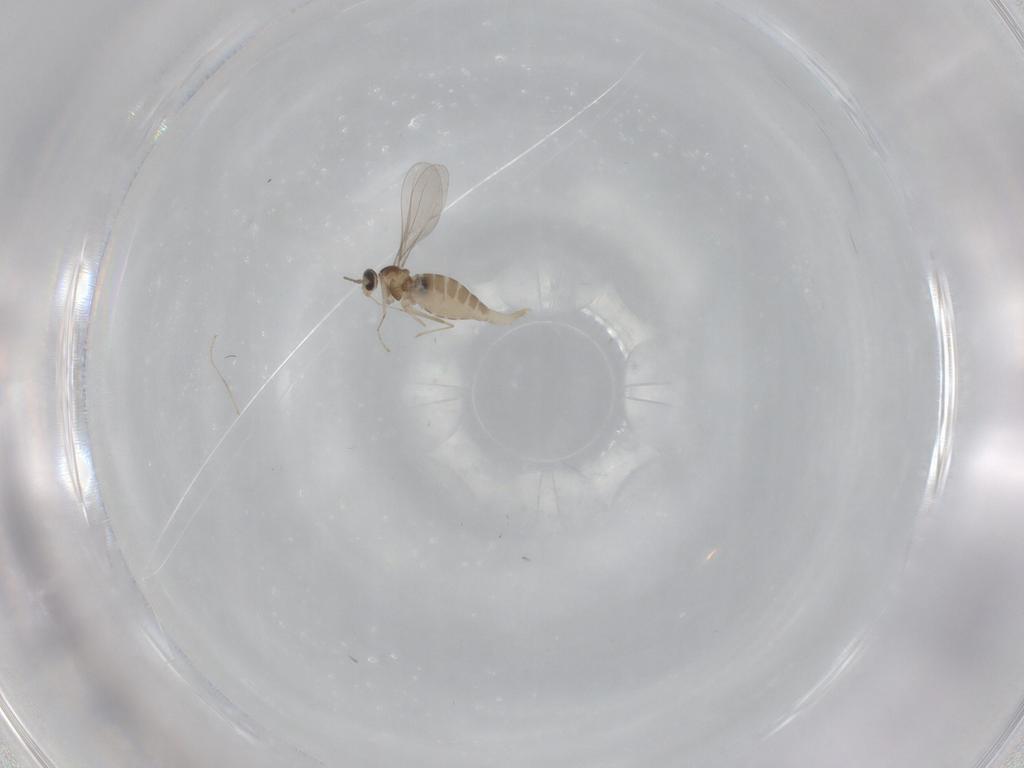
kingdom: Animalia
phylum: Arthropoda
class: Insecta
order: Diptera
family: Cecidomyiidae
